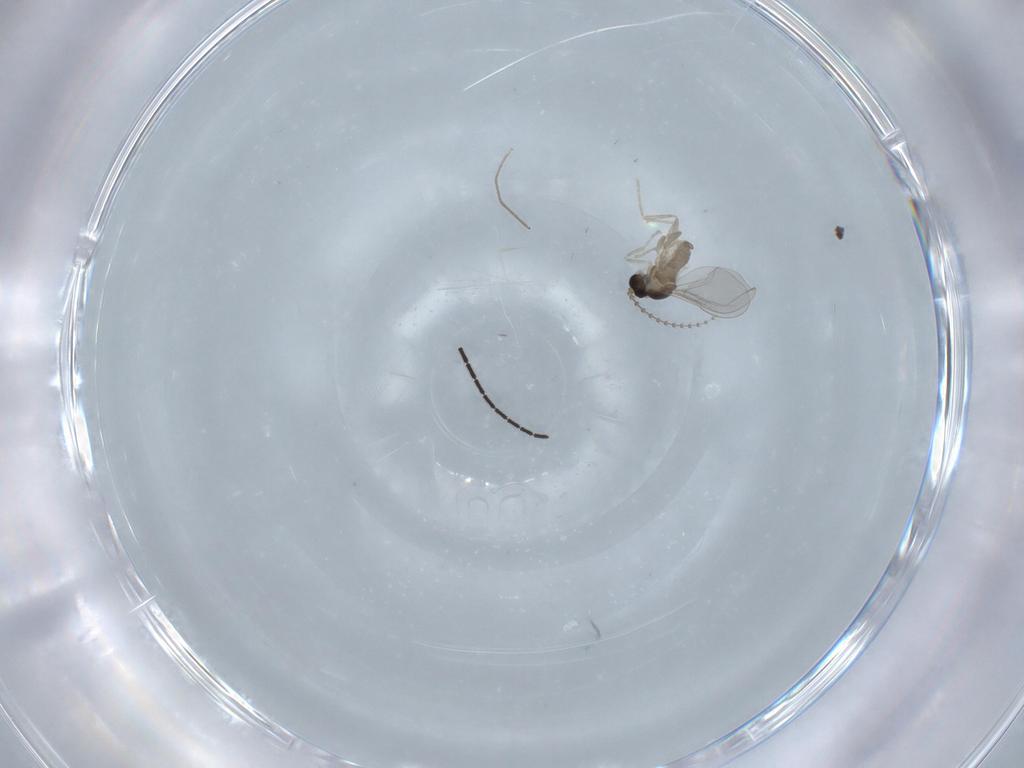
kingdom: Animalia
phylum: Arthropoda
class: Insecta
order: Diptera
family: Cecidomyiidae
